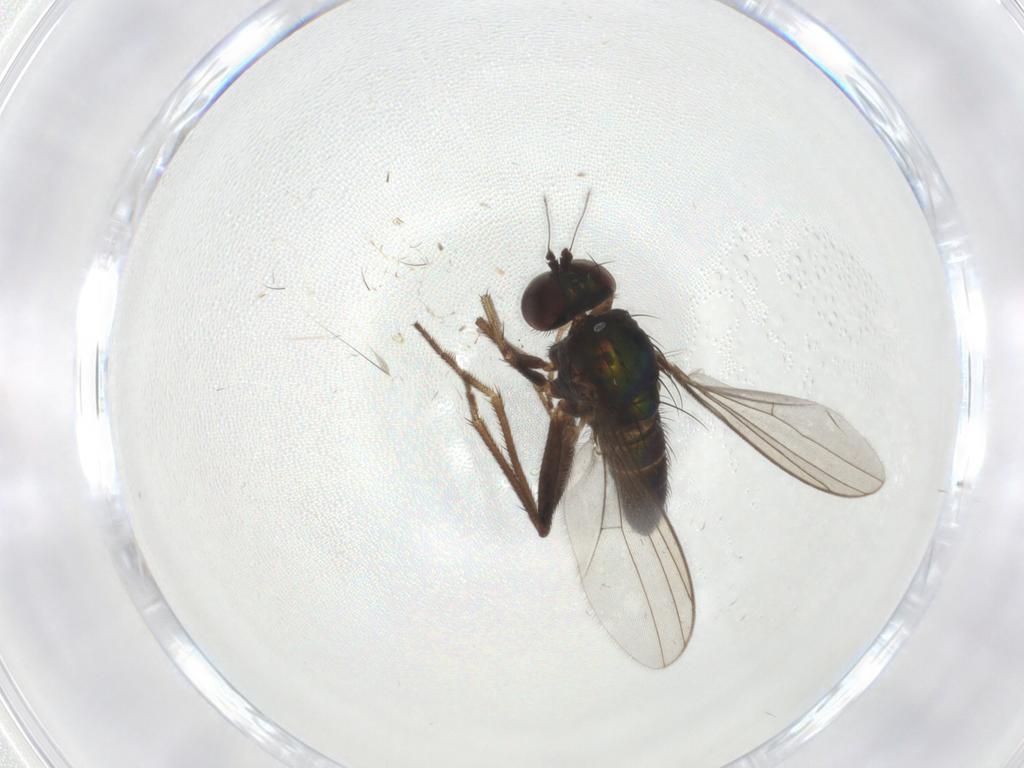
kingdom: Animalia
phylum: Arthropoda
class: Insecta
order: Diptera
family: Dolichopodidae
